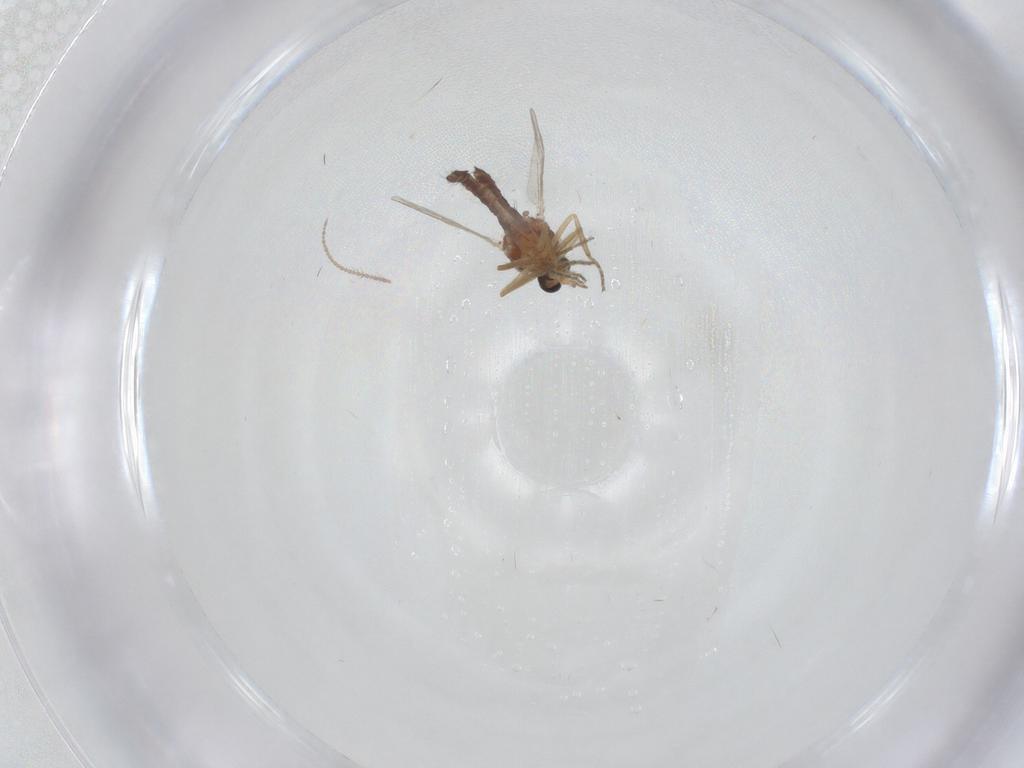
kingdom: Animalia
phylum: Arthropoda
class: Insecta
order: Diptera
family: Ceratopogonidae
